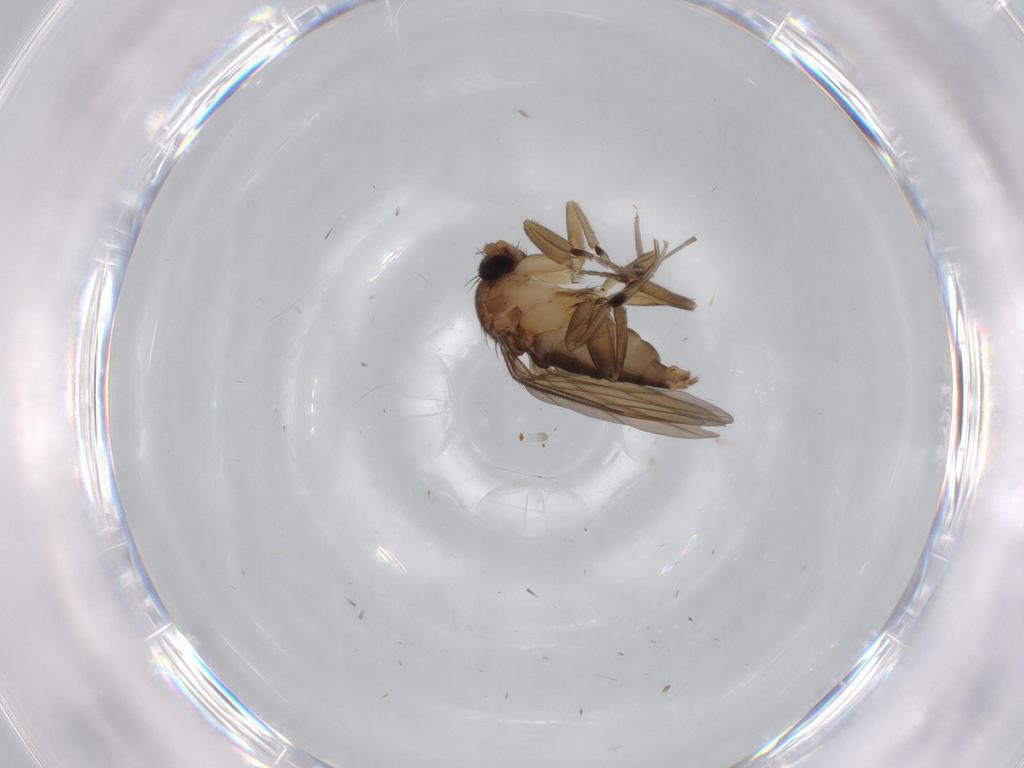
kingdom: Animalia
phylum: Arthropoda
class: Insecta
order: Diptera
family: Phoridae
